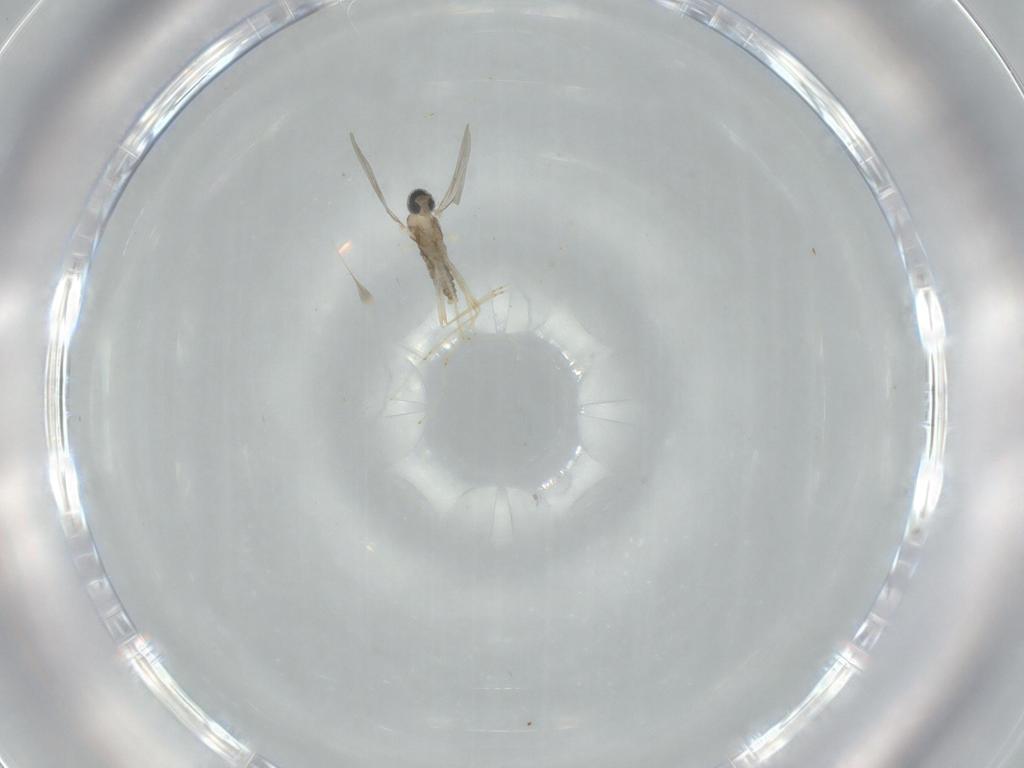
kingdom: Animalia
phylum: Arthropoda
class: Insecta
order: Diptera
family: Cecidomyiidae
